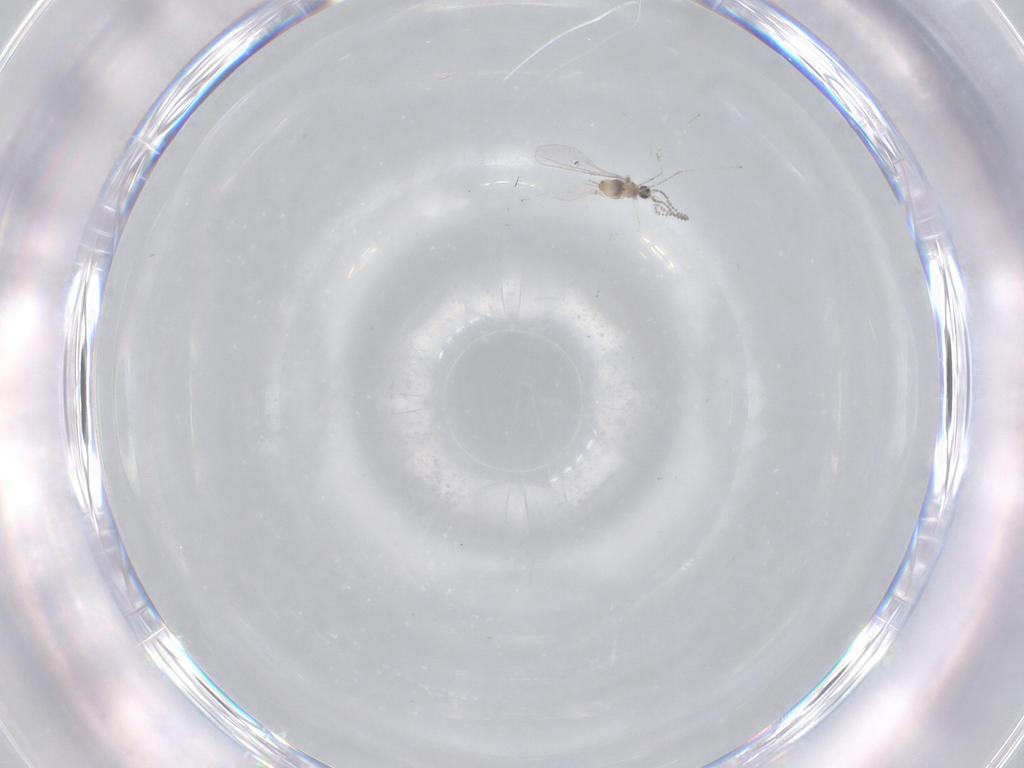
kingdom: Animalia
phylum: Arthropoda
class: Insecta
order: Diptera
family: Cecidomyiidae
